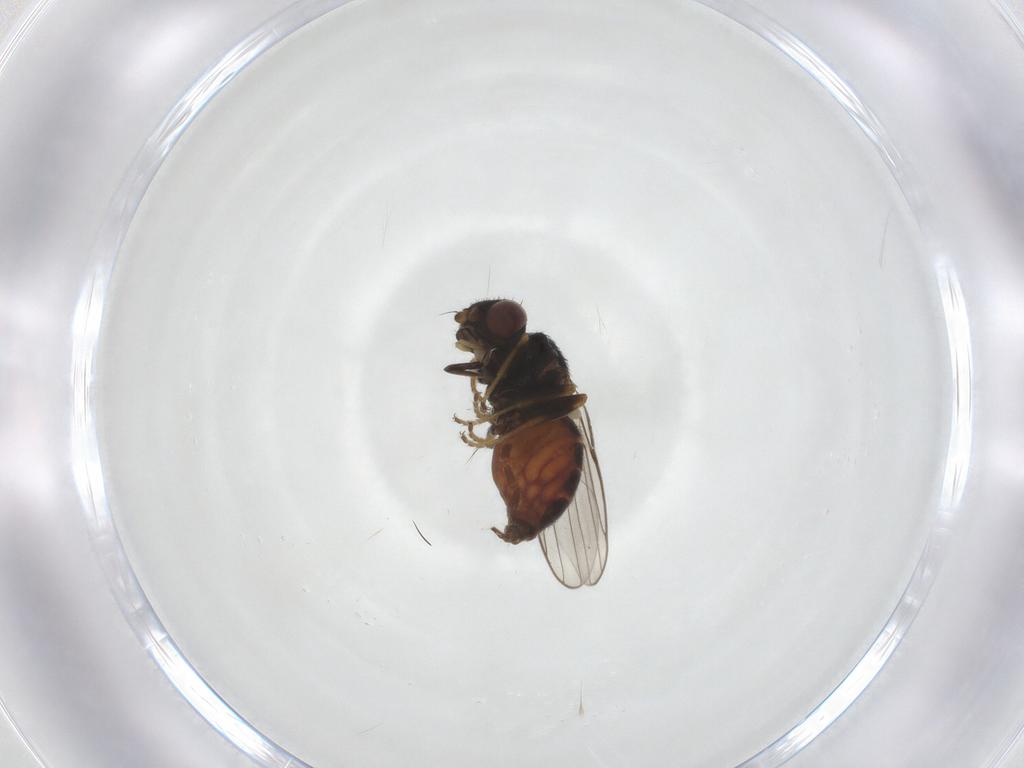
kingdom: Animalia
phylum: Arthropoda
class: Insecta
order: Diptera
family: Chloropidae
